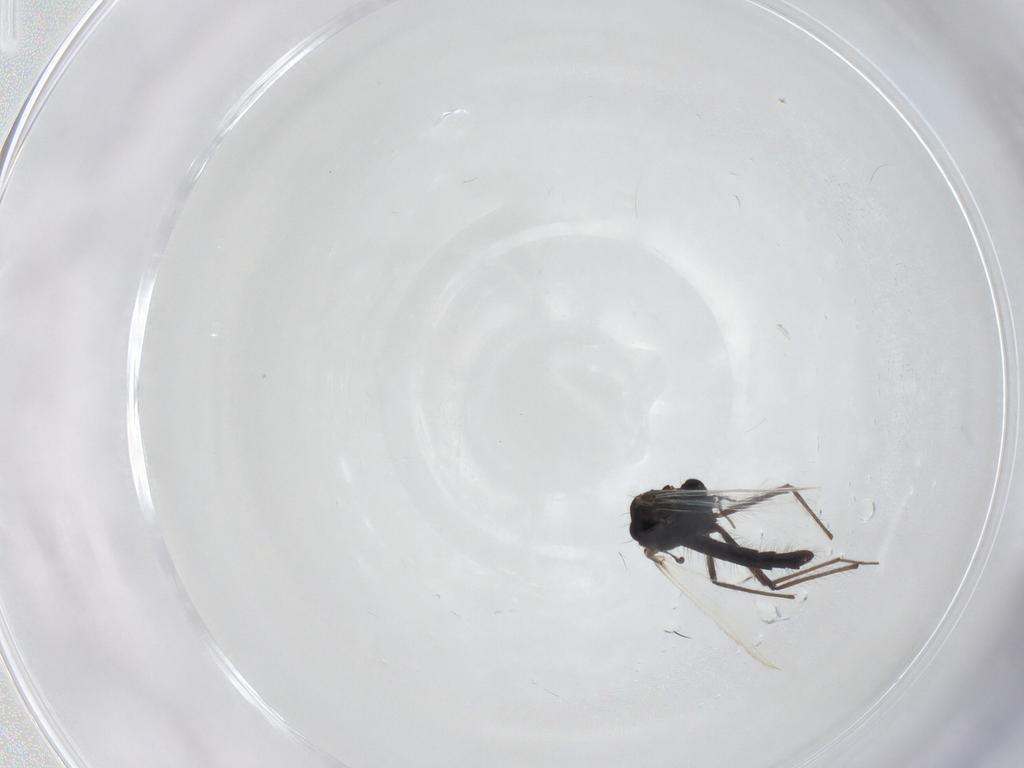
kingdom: Animalia
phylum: Arthropoda
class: Insecta
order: Diptera
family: Chironomidae
